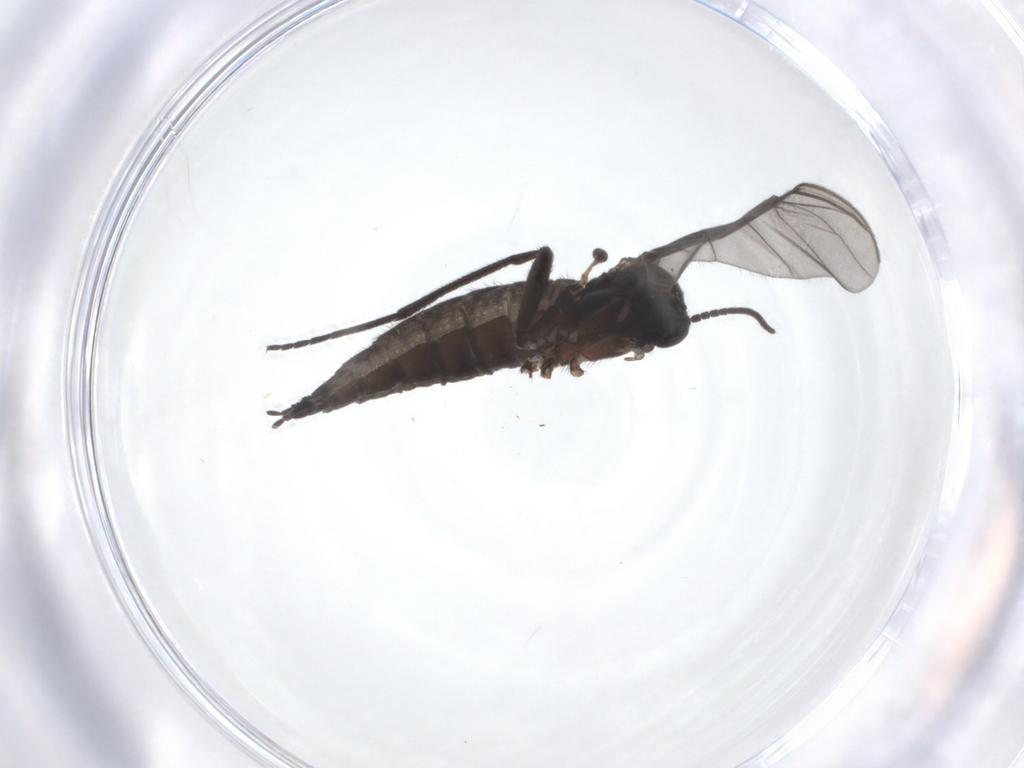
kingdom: Animalia
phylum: Arthropoda
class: Insecta
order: Diptera
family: Sciaridae
